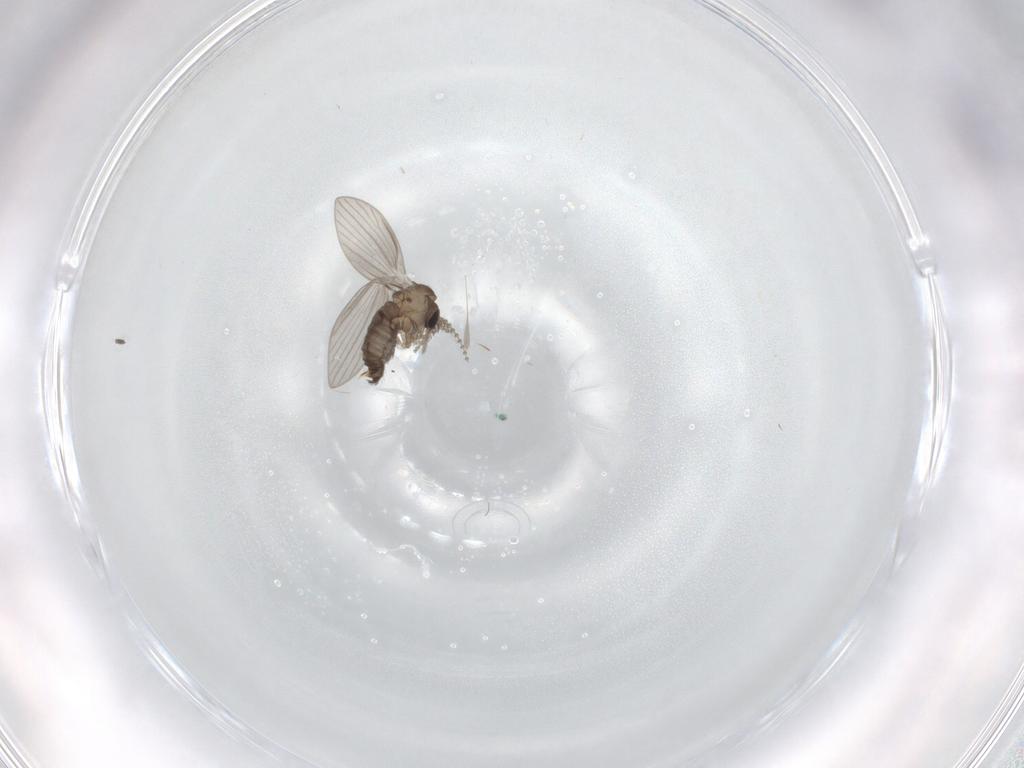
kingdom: Animalia
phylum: Arthropoda
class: Insecta
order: Diptera
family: Psychodidae
